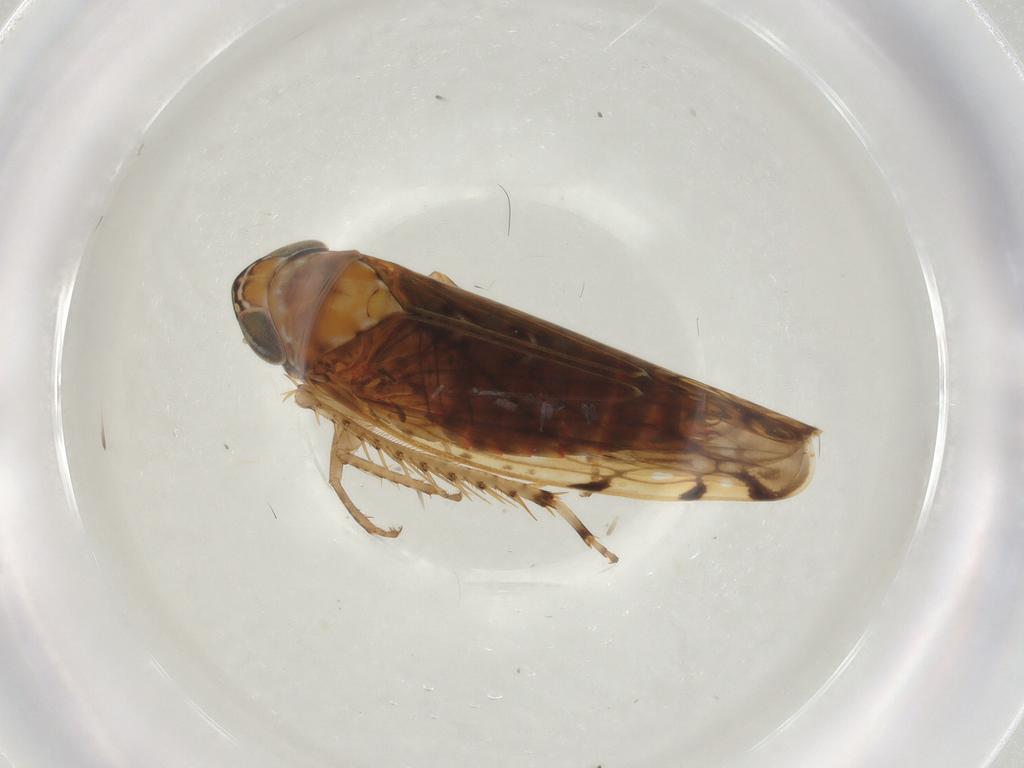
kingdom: Animalia
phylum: Arthropoda
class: Insecta
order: Hemiptera
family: Cicadellidae
